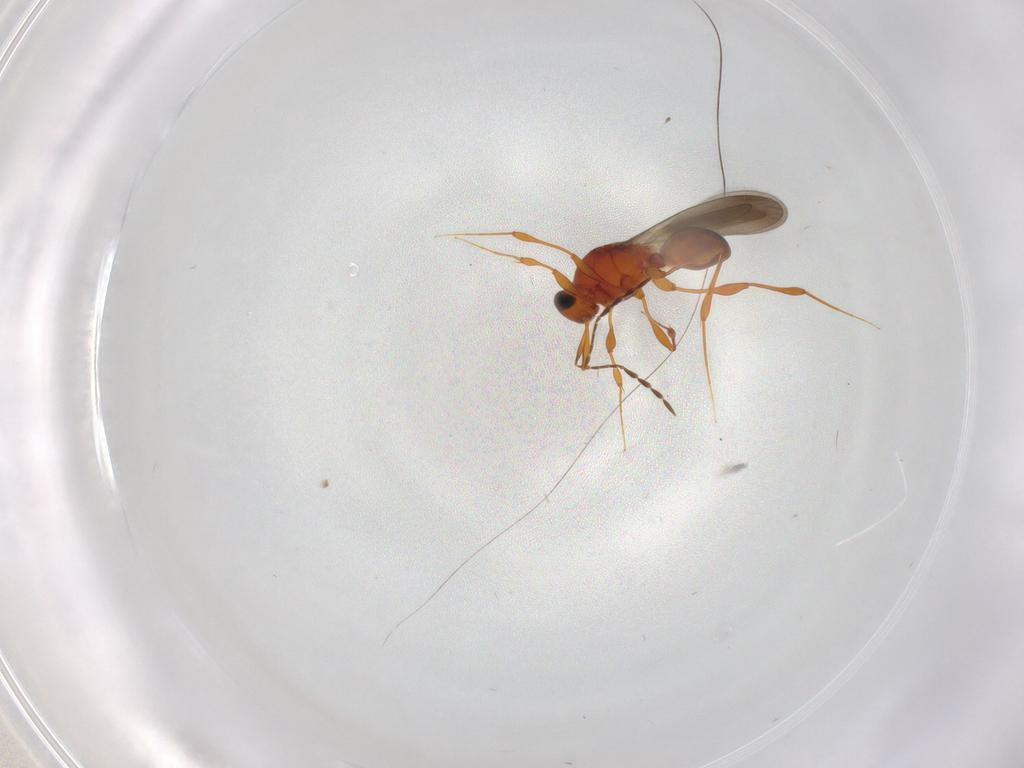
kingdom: Animalia
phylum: Arthropoda
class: Insecta
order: Hymenoptera
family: Platygastridae
